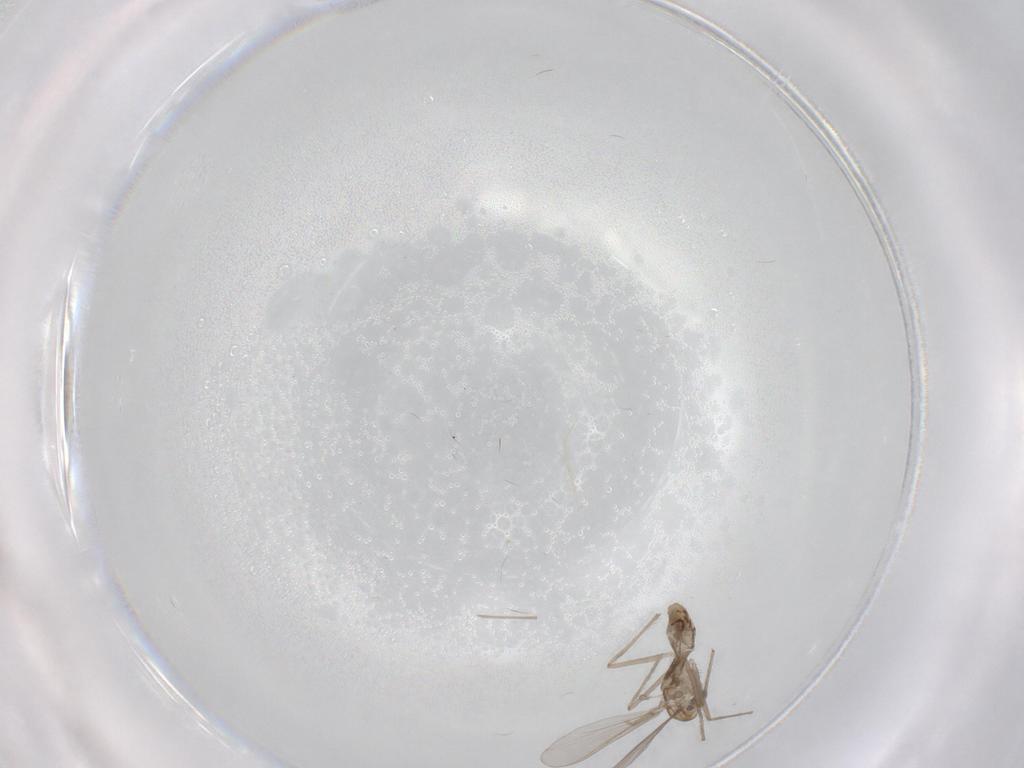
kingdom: Animalia
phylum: Arthropoda
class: Insecta
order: Diptera
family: Chironomidae
